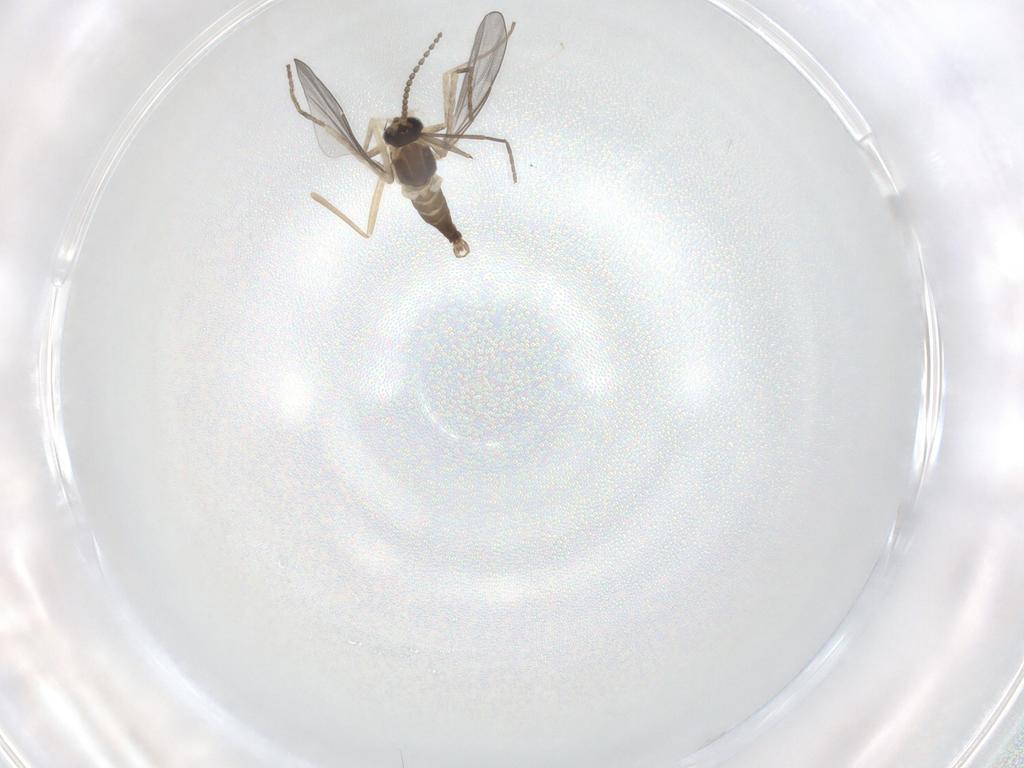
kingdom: Animalia
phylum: Arthropoda
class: Insecta
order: Diptera
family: Cecidomyiidae
